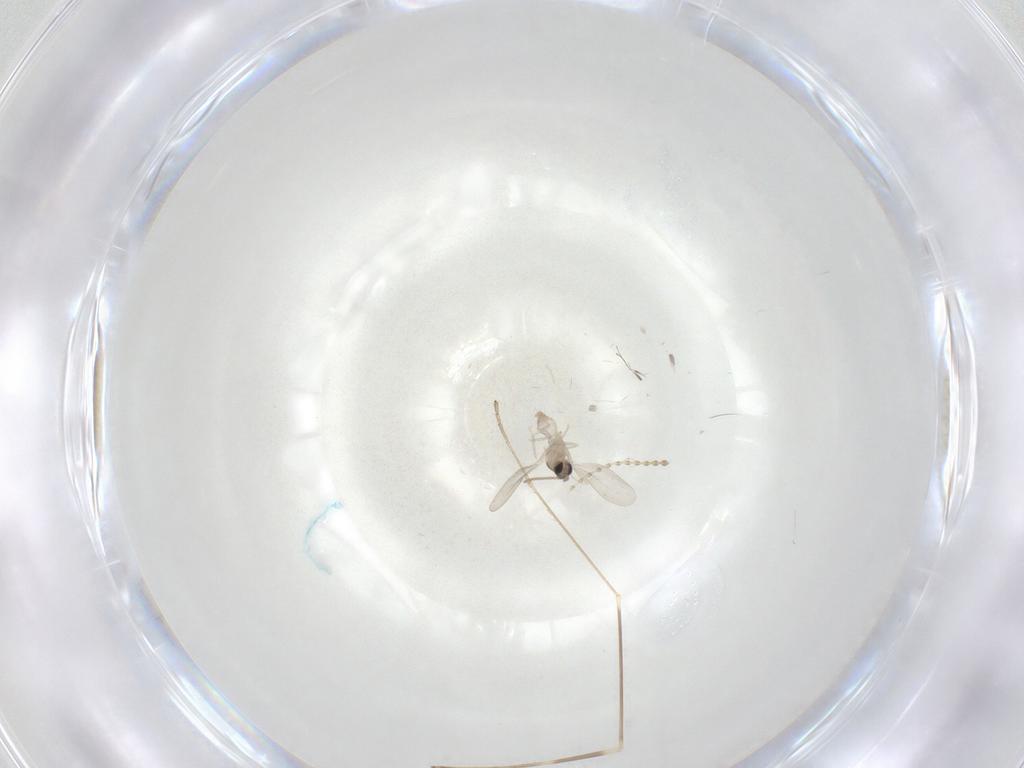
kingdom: Animalia
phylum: Arthropoda
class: Insecta
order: Diptera
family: Cecidomyiidae
